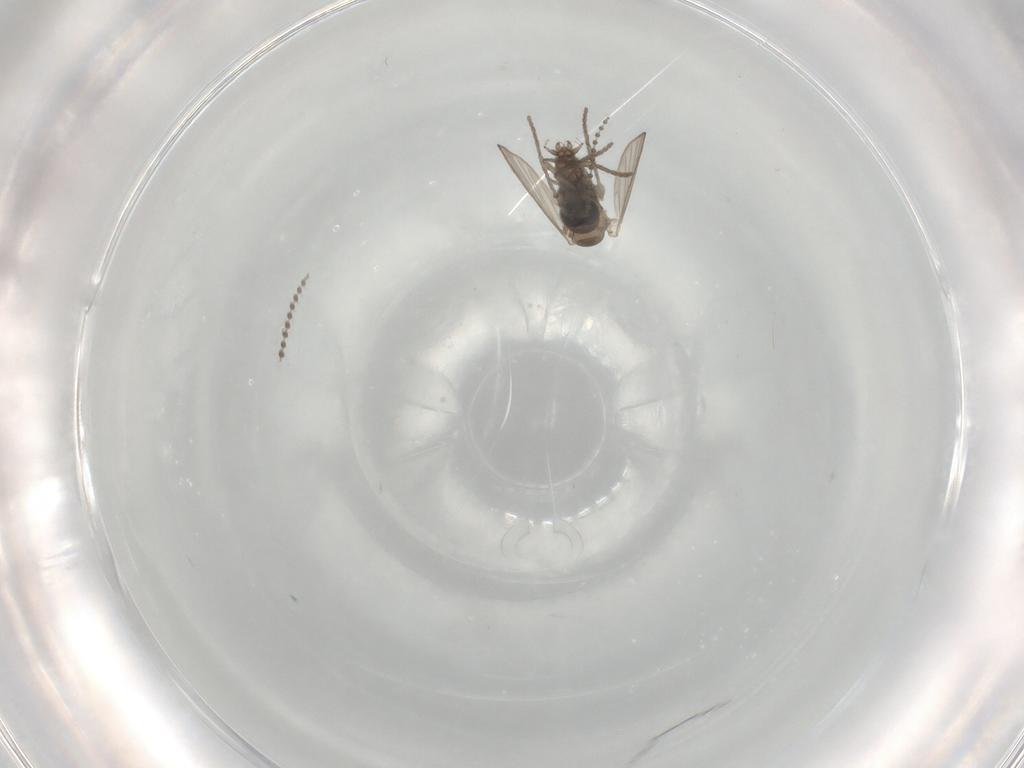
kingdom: Animalia
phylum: Arthropoda
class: Insecta
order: Diptera
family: Psychodidae
